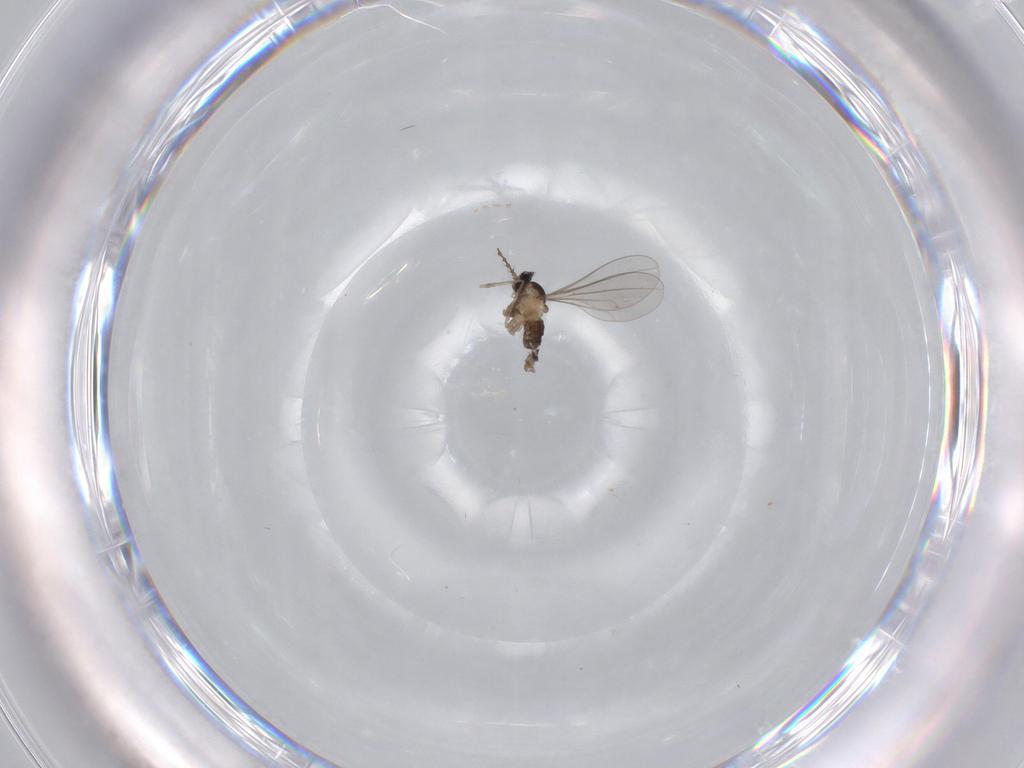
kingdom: Animalia
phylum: Arthropoda
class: Insecta
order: Diptera
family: Cecidomyiidae
